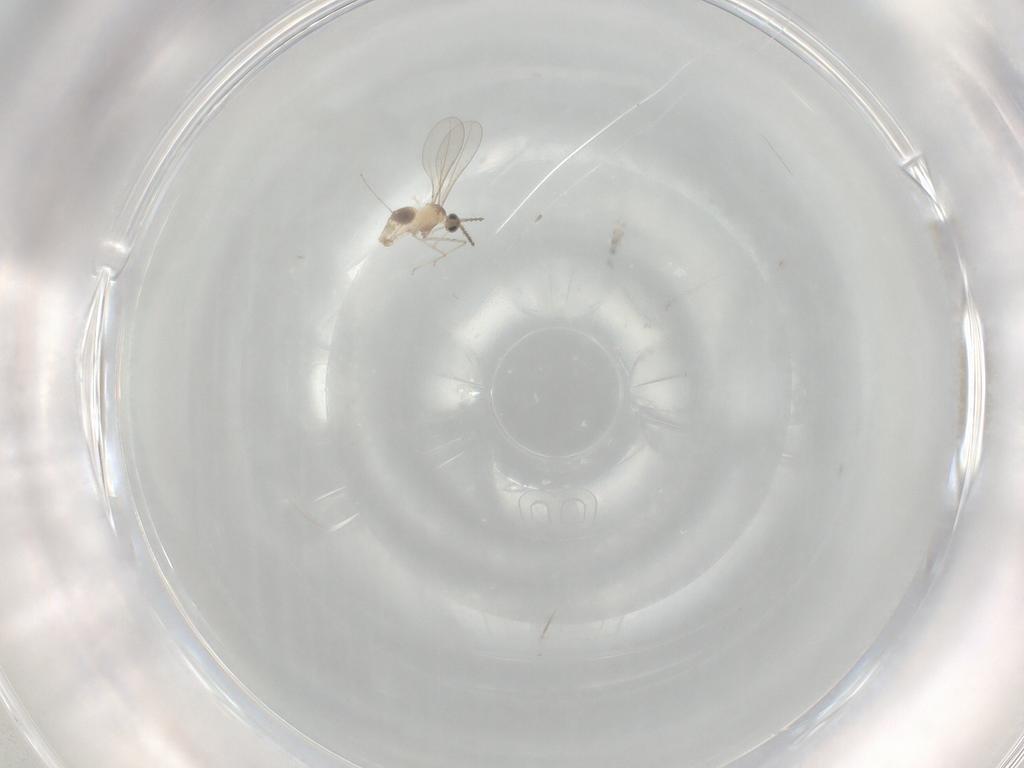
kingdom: Animalia
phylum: Arthropoda
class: Insecta
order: Diptera
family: Cecidomyiidae
